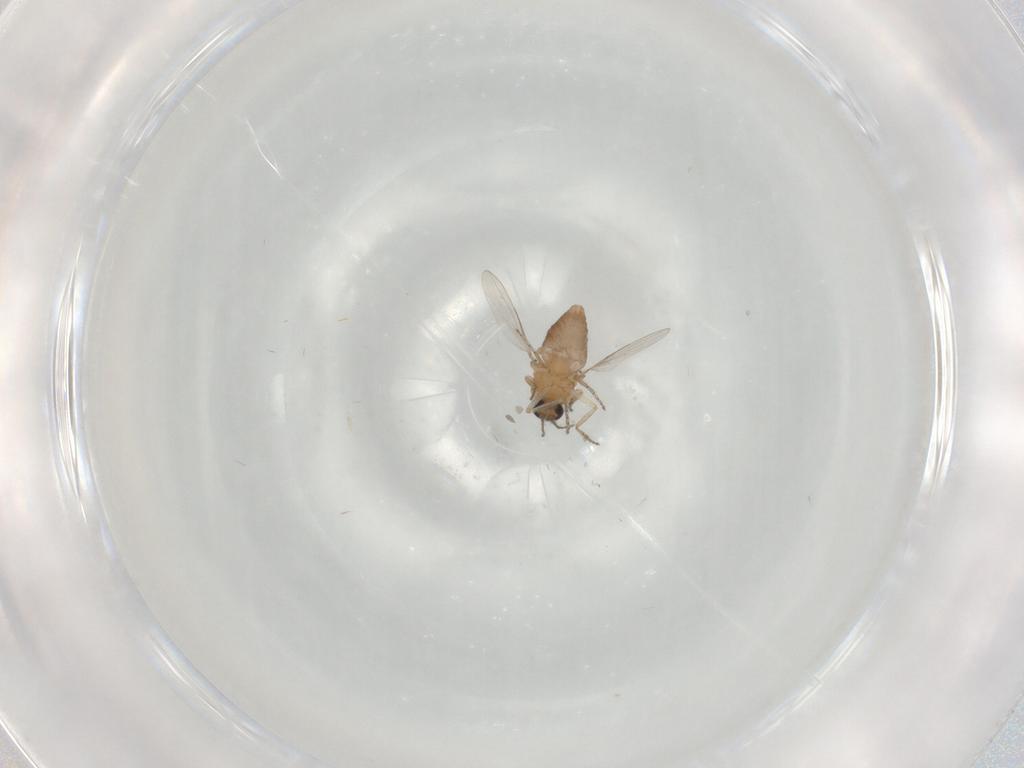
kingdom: Animalia
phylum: Arthropoda
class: Insecta
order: Diptera
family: Ceratopogonidae
